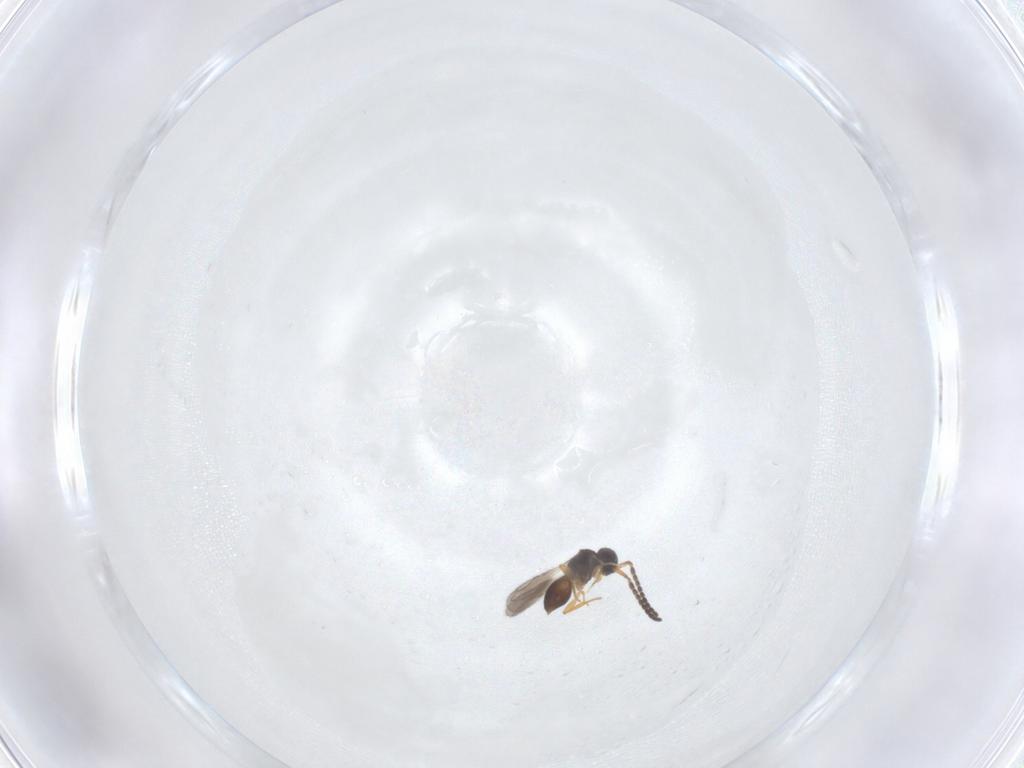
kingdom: Animalia
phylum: Arthropoda
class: Insecta
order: Hymenoptera
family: Ceraphronidae
